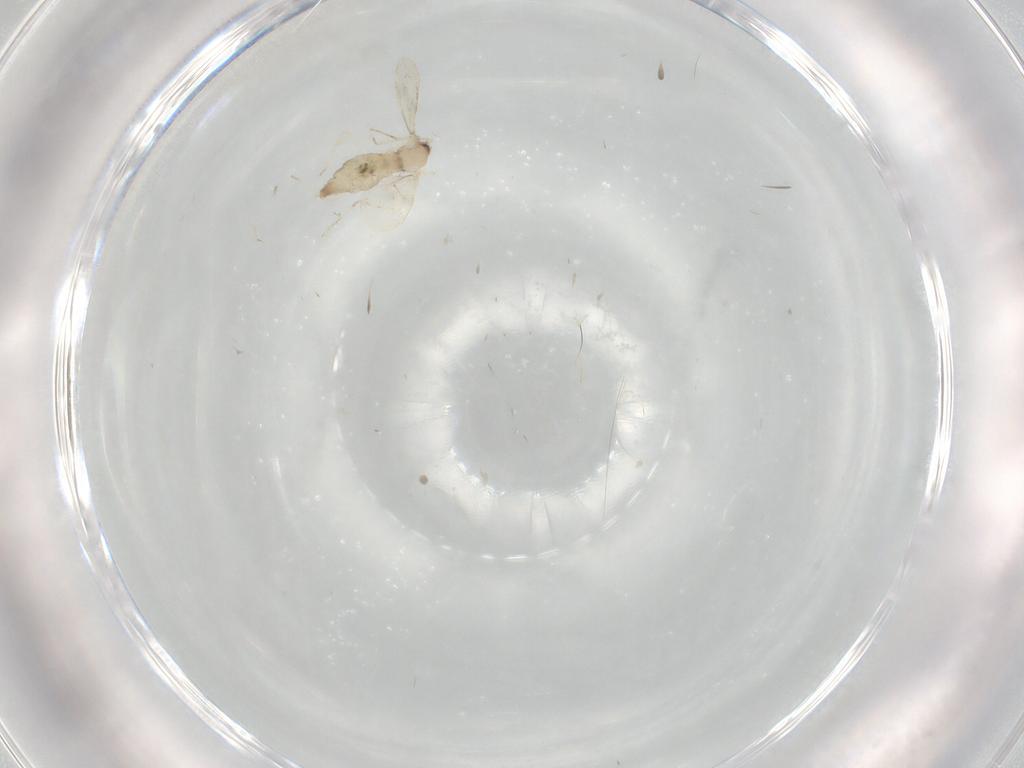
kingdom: Animalia
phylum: Arthropoda
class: Insecta
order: Diptera
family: Cecidomyiidae
